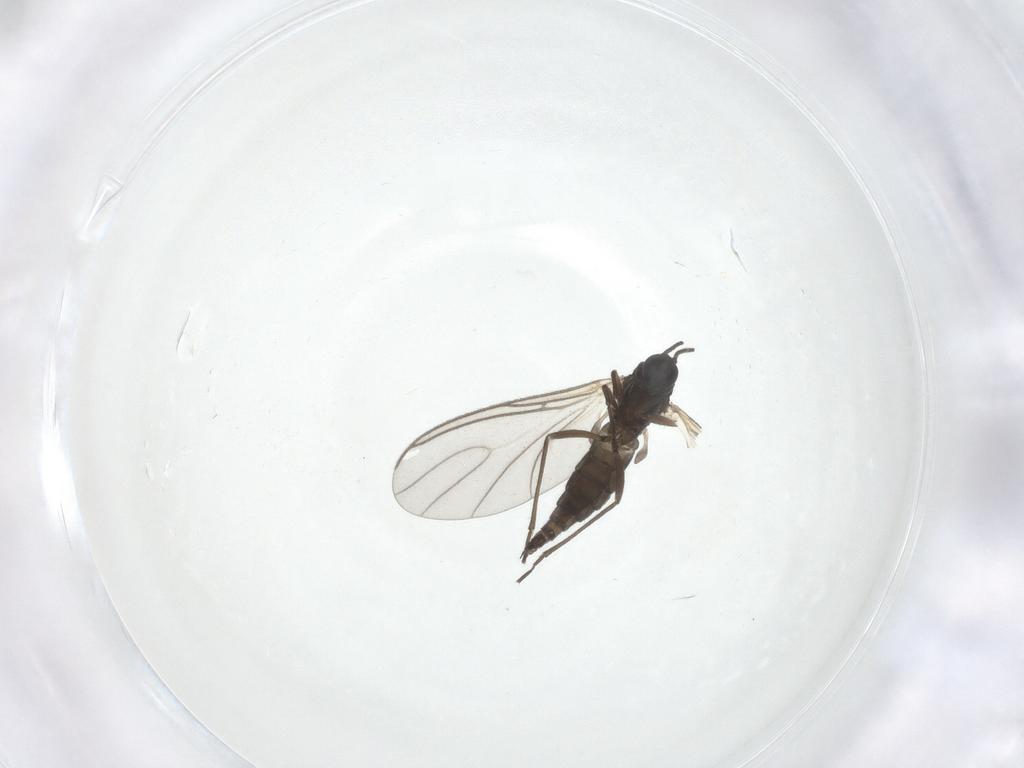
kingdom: Animalia
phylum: Arthropoda
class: Insecta
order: Diptera
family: Sciaridae
